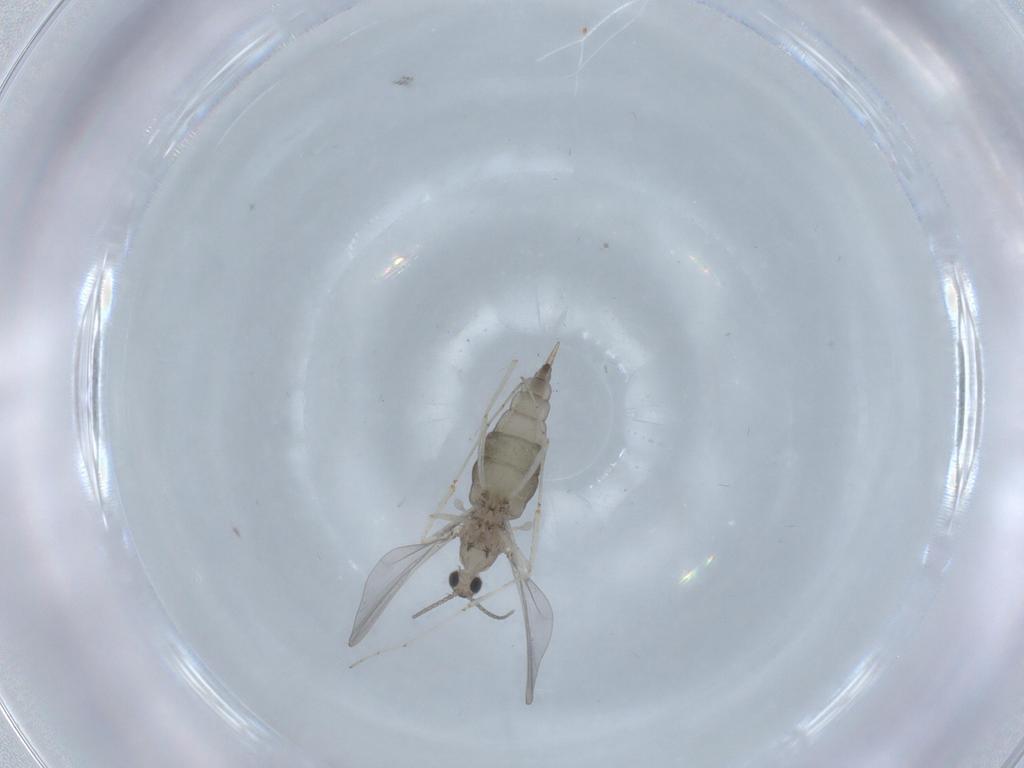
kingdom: Animalia
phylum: Arthropoda
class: Insecta
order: Diptera
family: Cecidomyiidae
